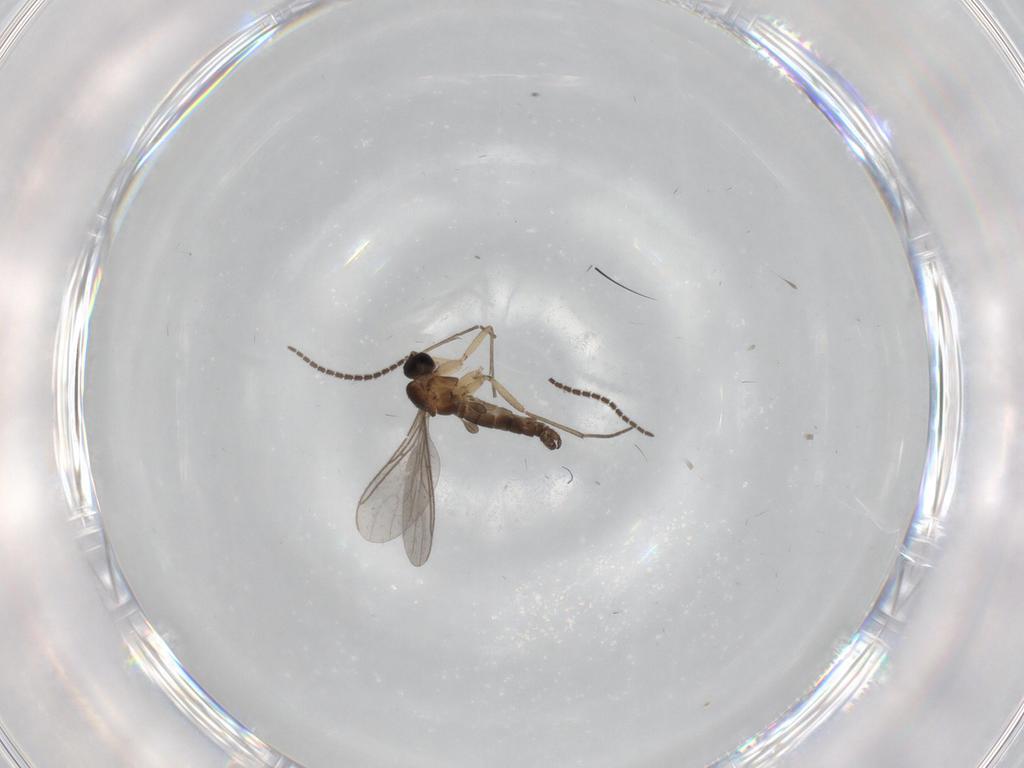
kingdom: Animalia
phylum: Arthropoda
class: Insecta
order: Diptera
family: Sciaridae
